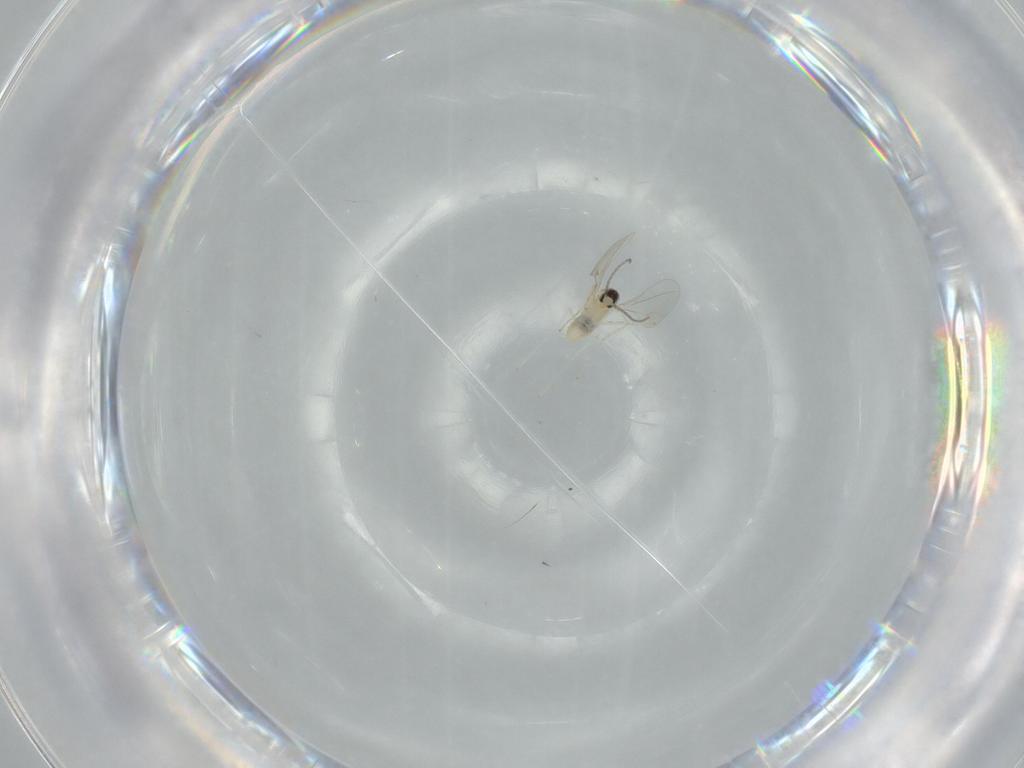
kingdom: Animalia
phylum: Arthropoda
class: Insecta
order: Diptera
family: Cecidomyiidae
